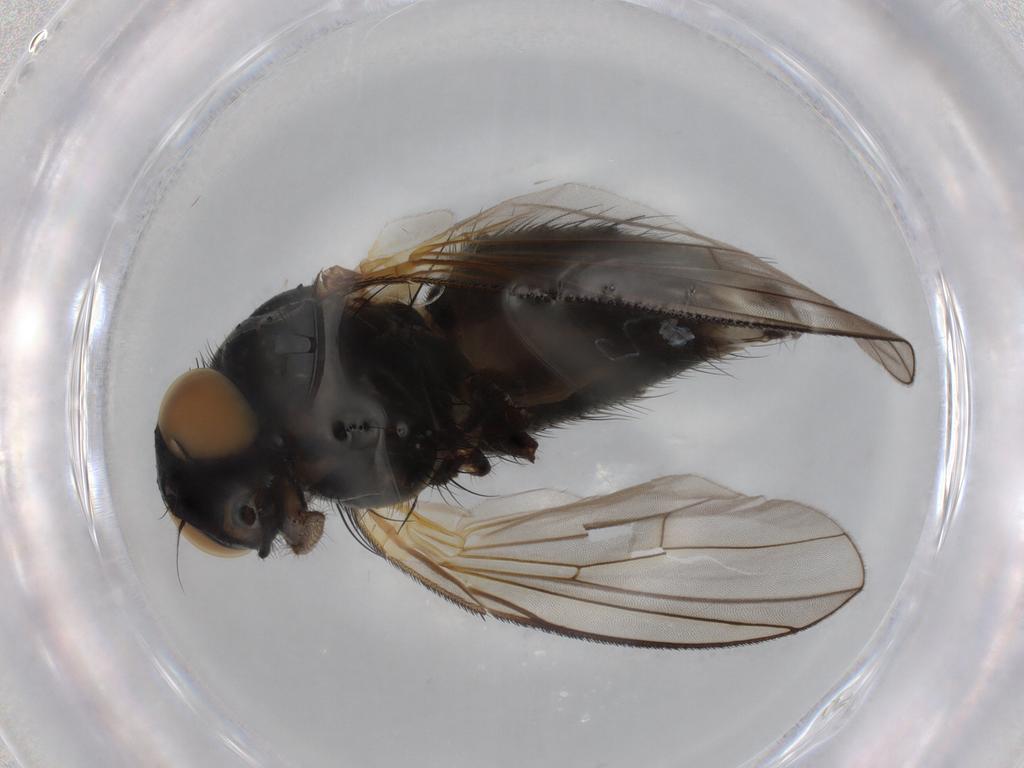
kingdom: Animalia
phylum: Arthropoda
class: Insecta
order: Diptera
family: Muscidae
